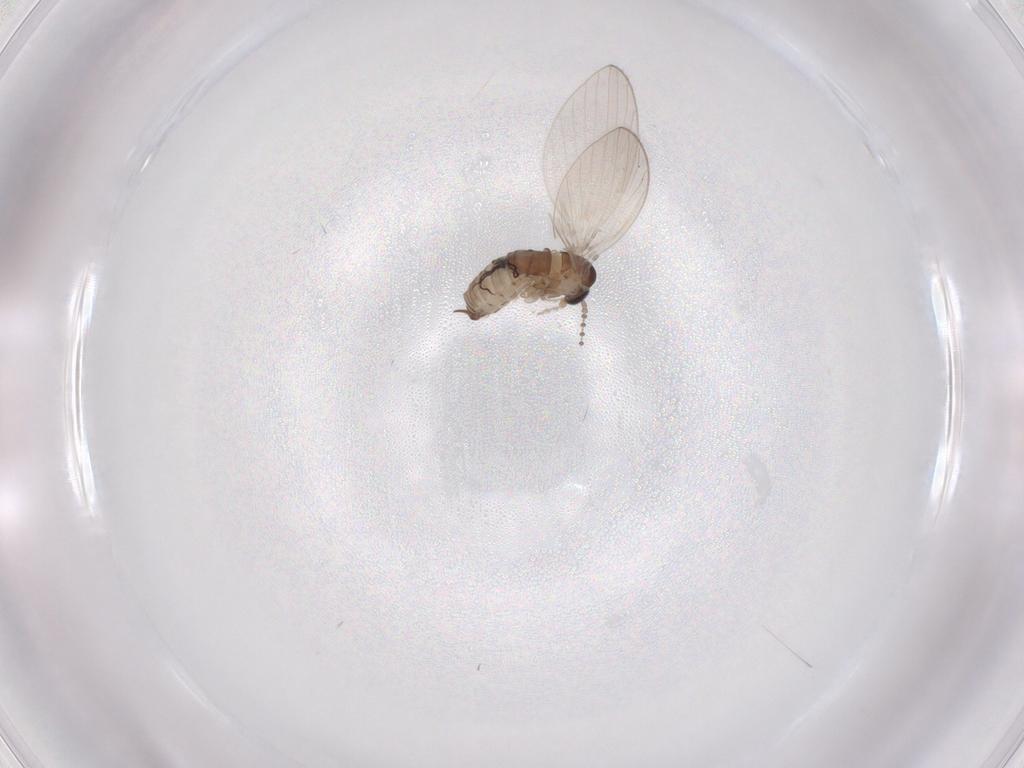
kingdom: Animalia
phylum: Arthropoda
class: Insecta
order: Diptera
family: Psychodidae
